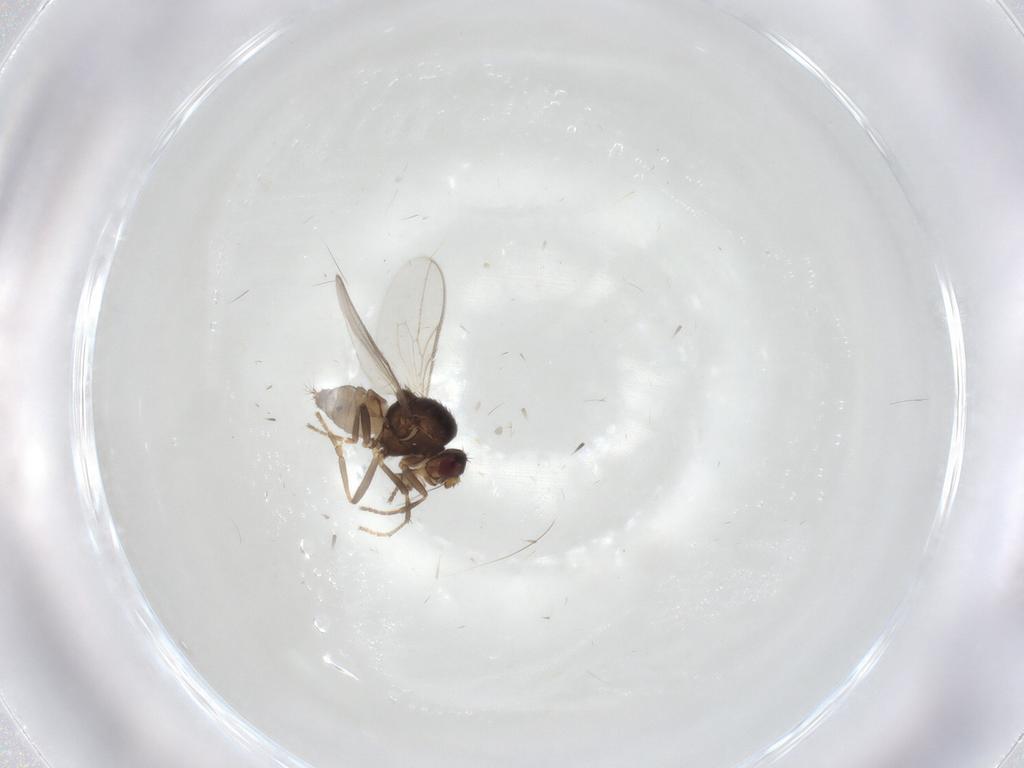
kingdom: Animalia
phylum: Arthropoda
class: Insecta
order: Diptera
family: Sphaeroceridae
